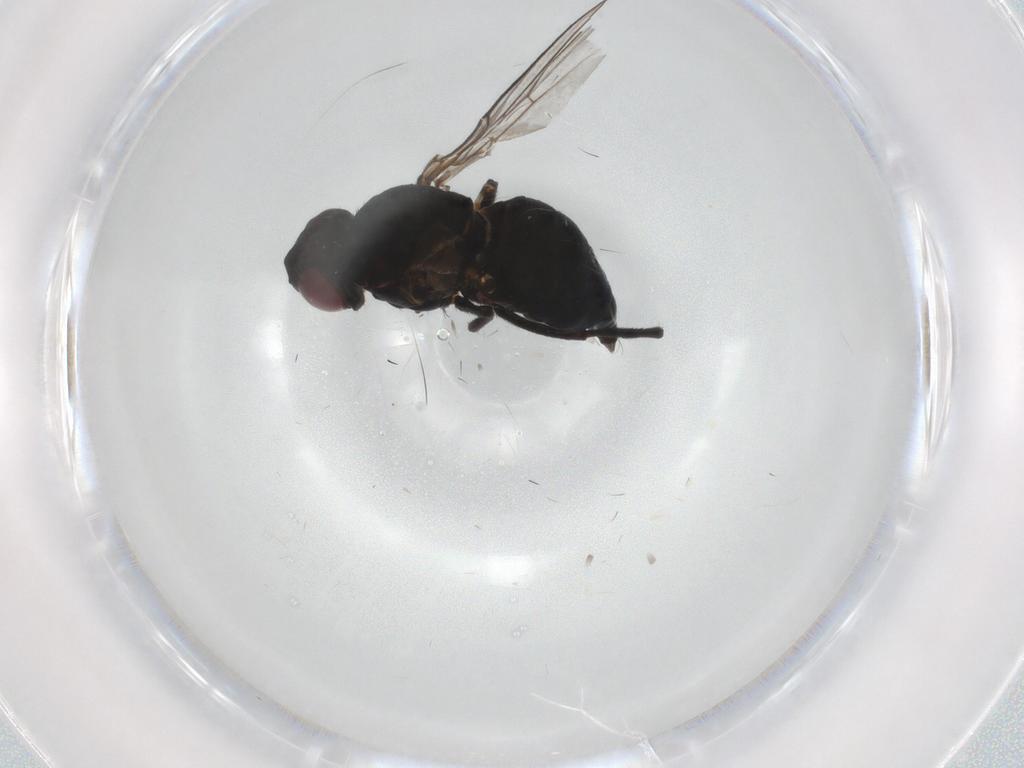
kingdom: Animalia
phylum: Arthropoda
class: Insecta
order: Diptera
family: Agromyzidae
